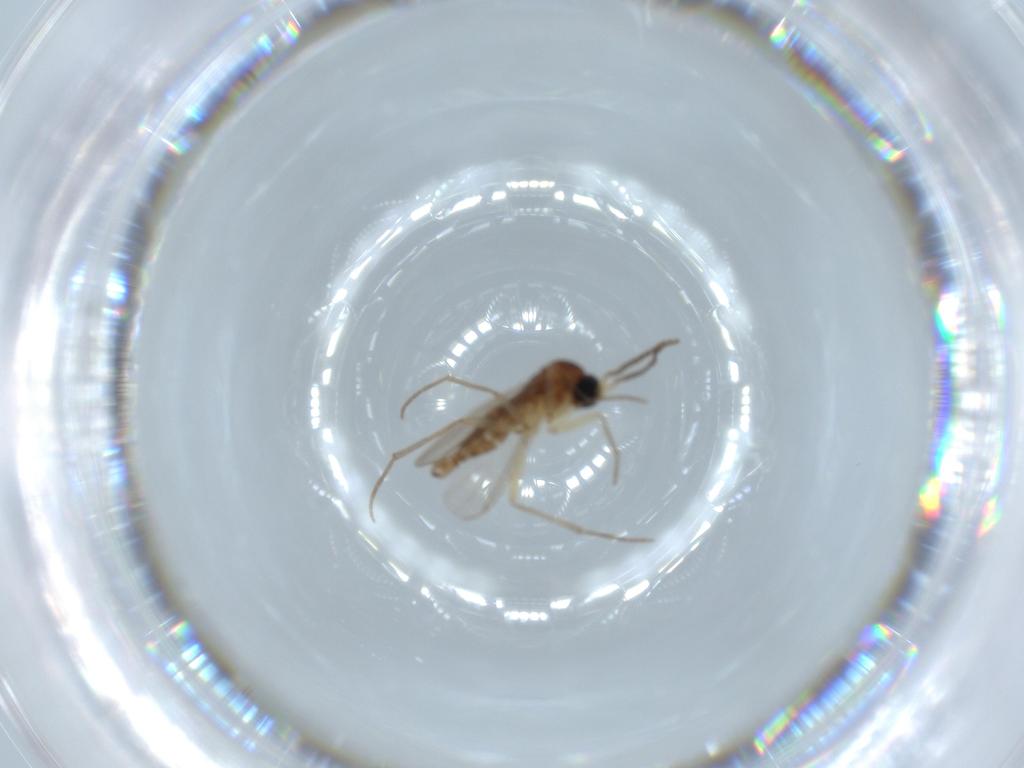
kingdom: Animalia
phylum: Arthropoda
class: Insecta
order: Diptera
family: Sciaridae
